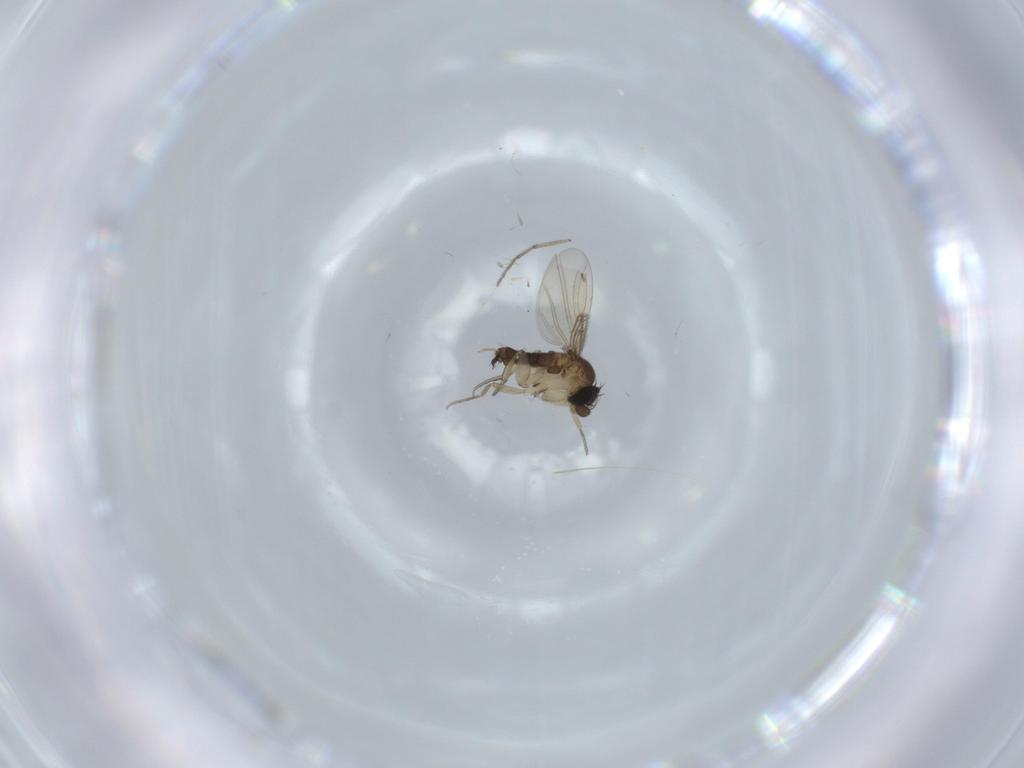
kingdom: Animalia
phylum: Arthropoda
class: Insecta
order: Diptera
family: Phoridae
